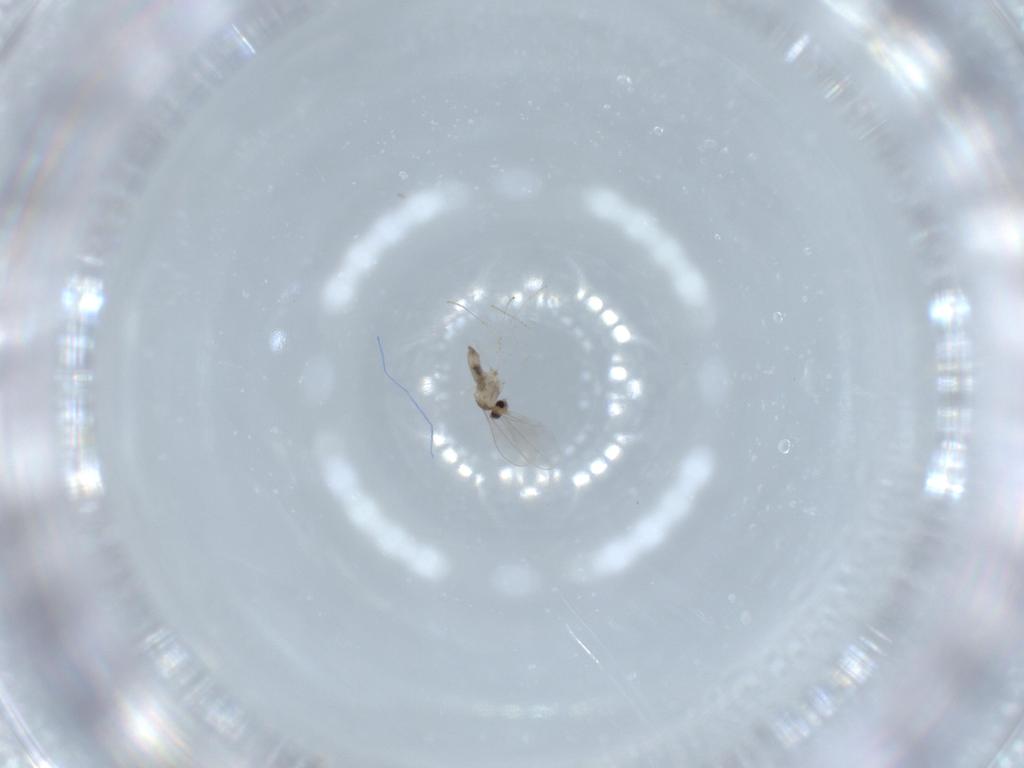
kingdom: Animalia
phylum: Arthropoda
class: Insecta
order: Diptera
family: Cecidomyiidae
